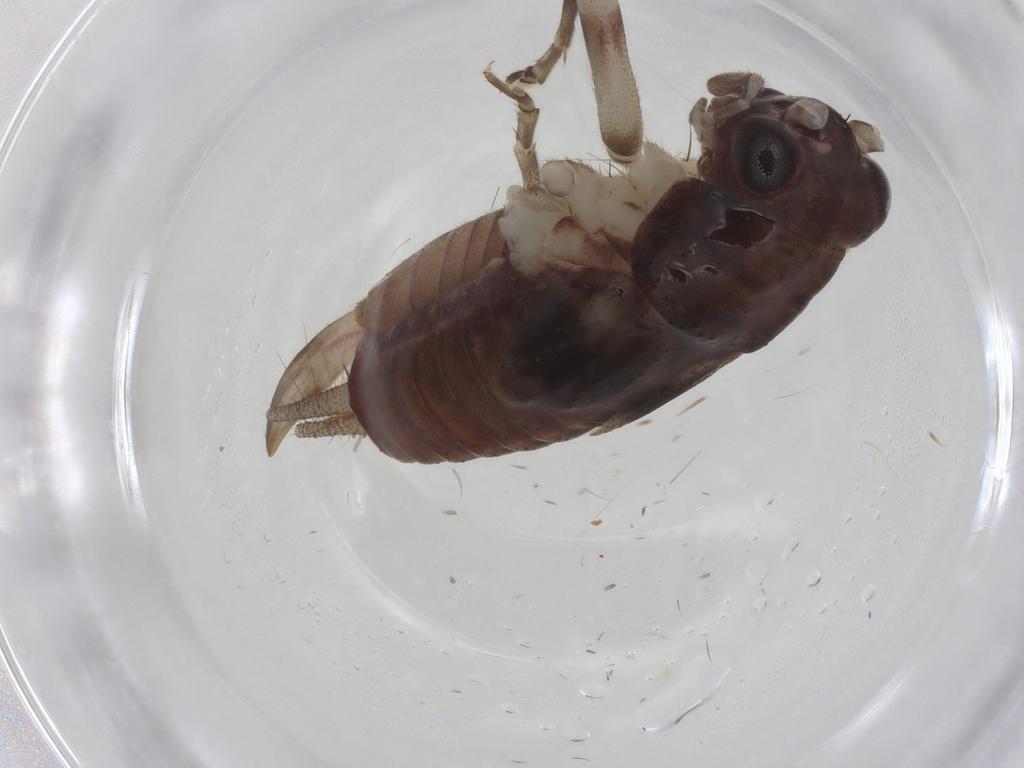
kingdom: Animalia
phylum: Arthropoda
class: Insecta
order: Orthoptera
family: Trigonidiidae
